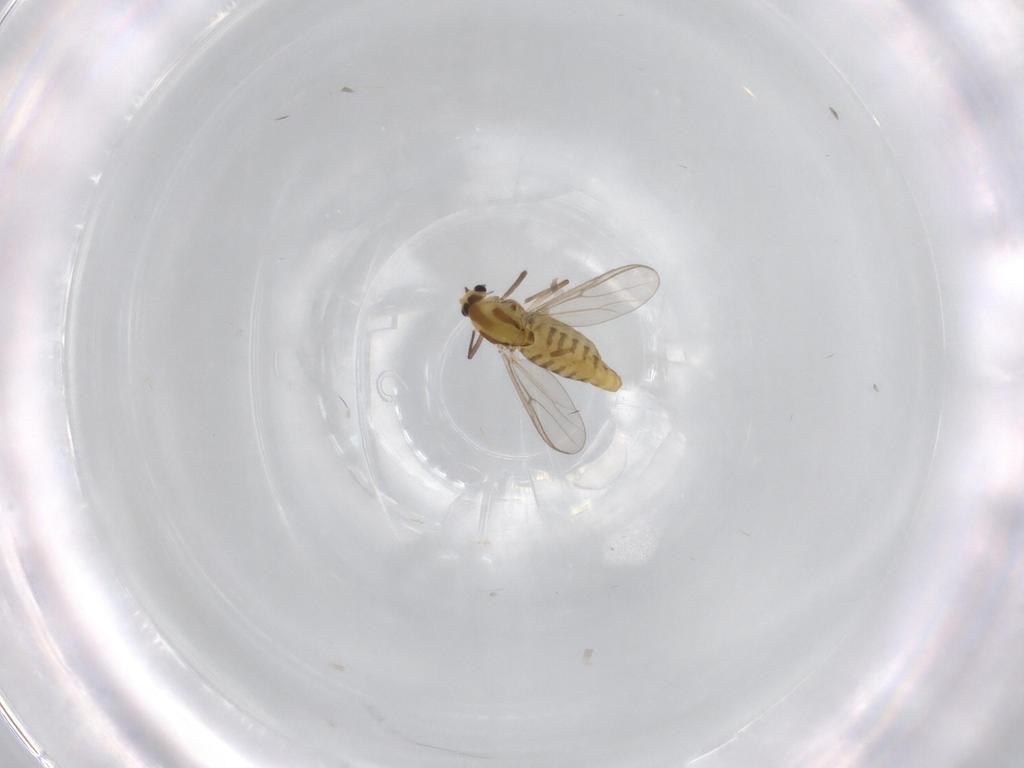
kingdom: Animalia
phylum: Arthropoda
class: Insecta
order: Diptera
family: Chironomidae
